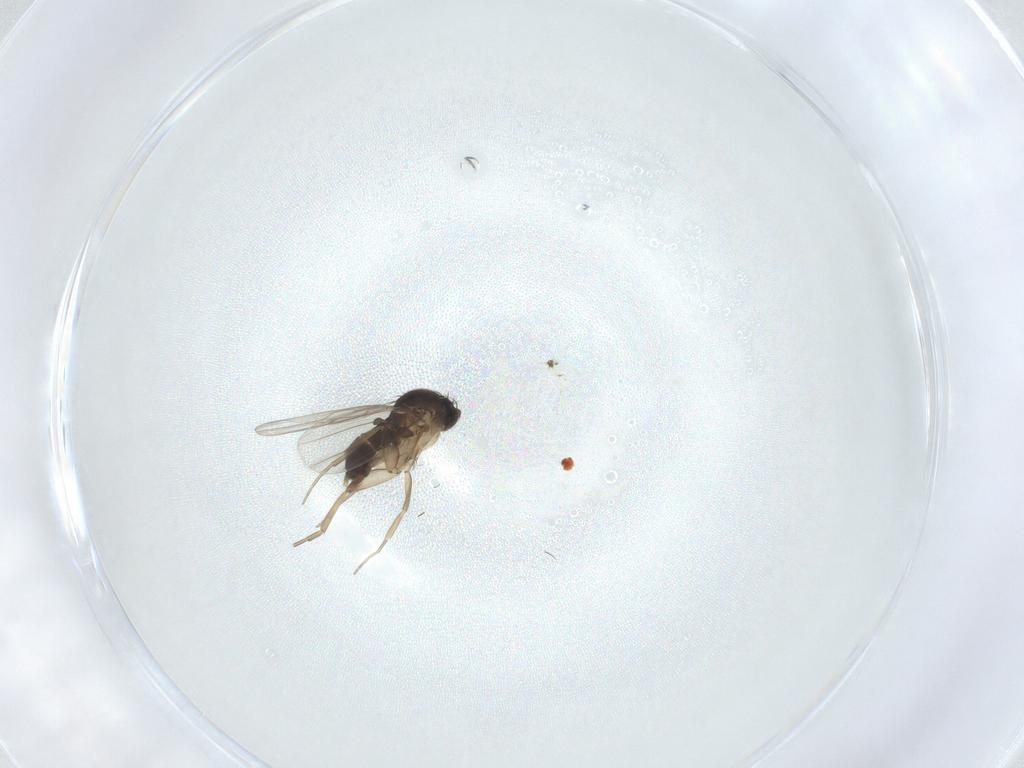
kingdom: Animalia
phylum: Arthropoda
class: Insecta
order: Diptera
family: Phoridae
